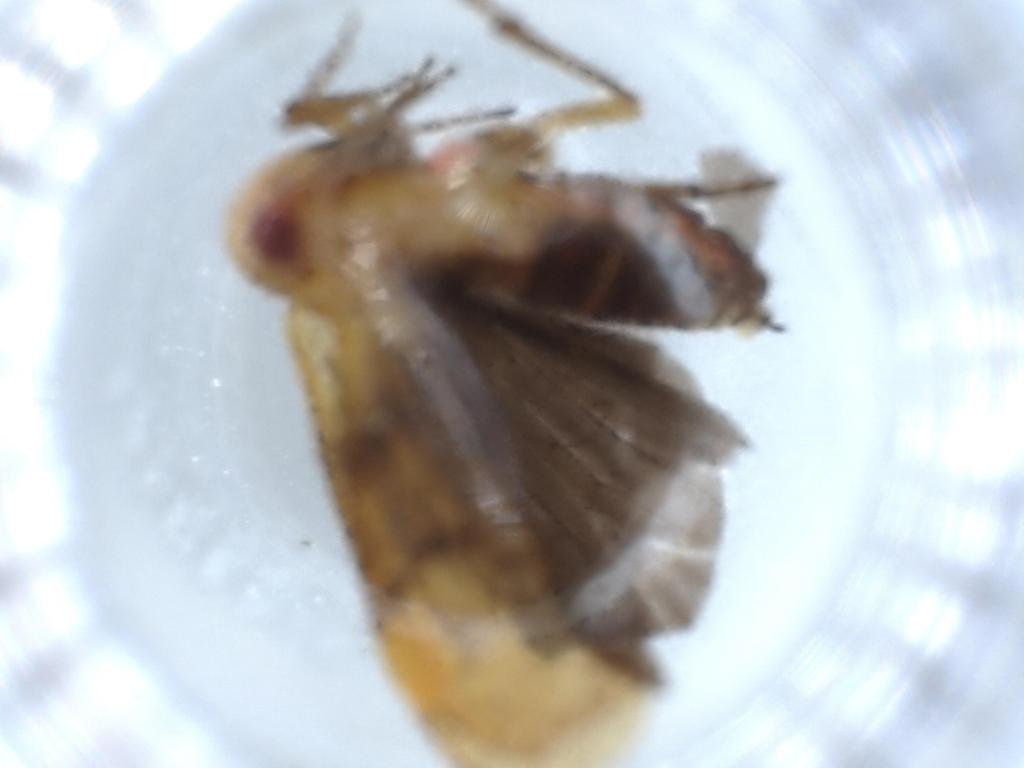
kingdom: Animalia
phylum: Arthropoda
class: Insecta
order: Hemiptera
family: Achilidae
